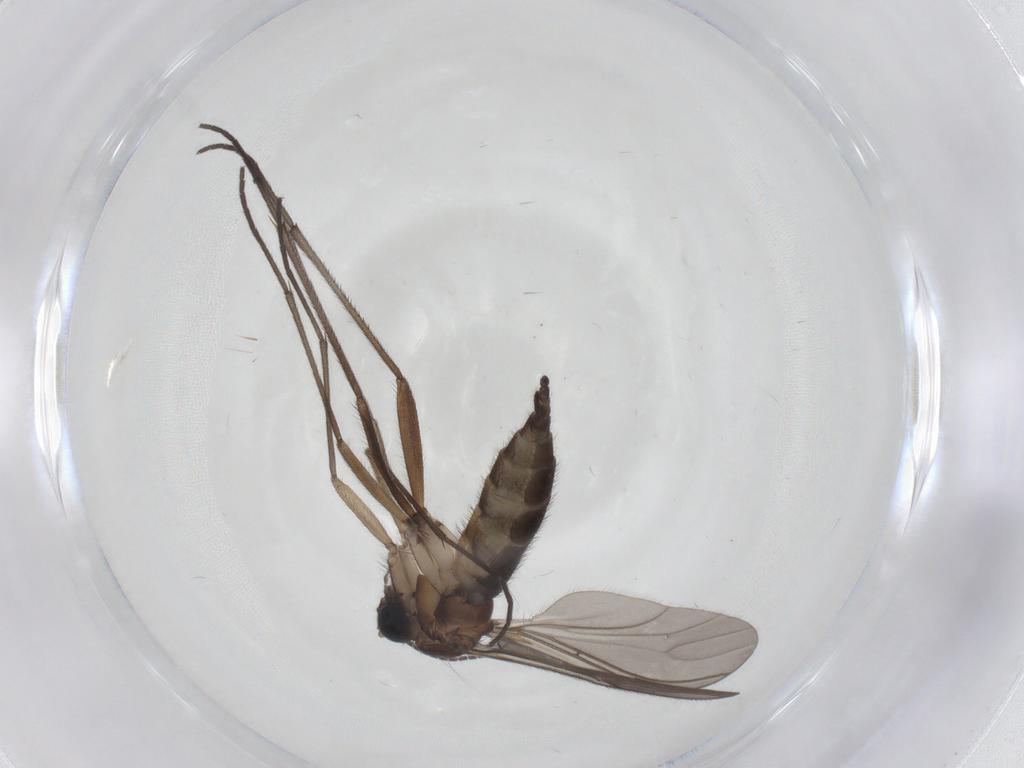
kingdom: Animalia
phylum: Arthropoda
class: Insecta
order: Diptera
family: Sciaridae
